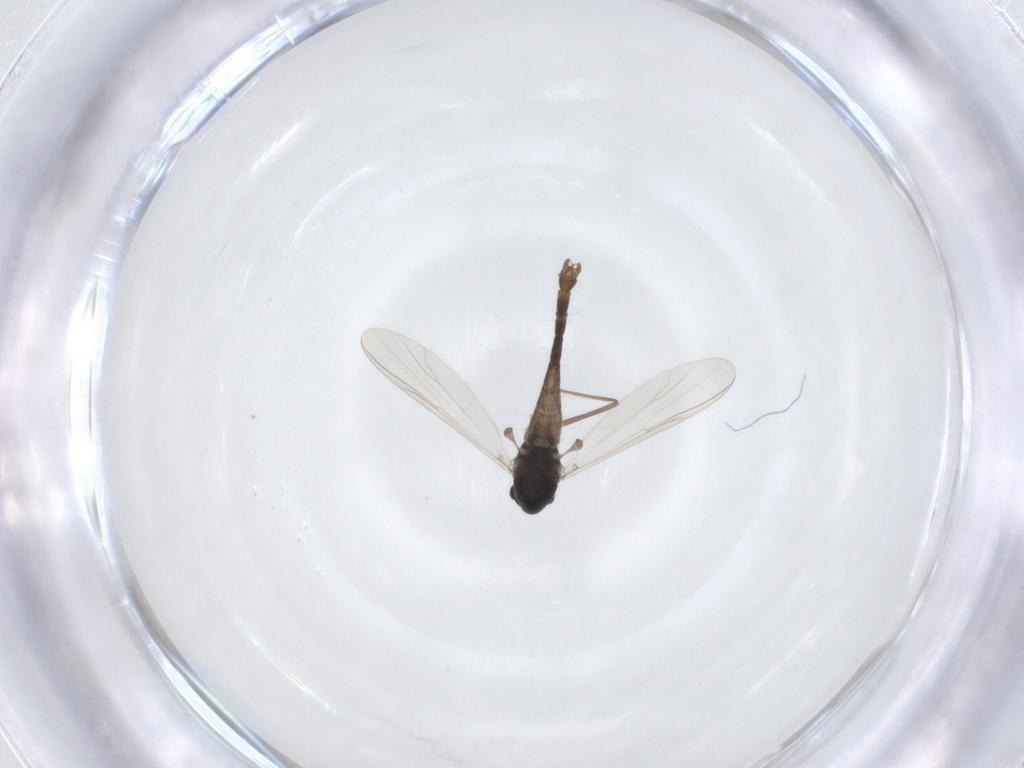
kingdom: Animalia
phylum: Arthropoda
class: Insecta
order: Diptera
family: Chironomidae
